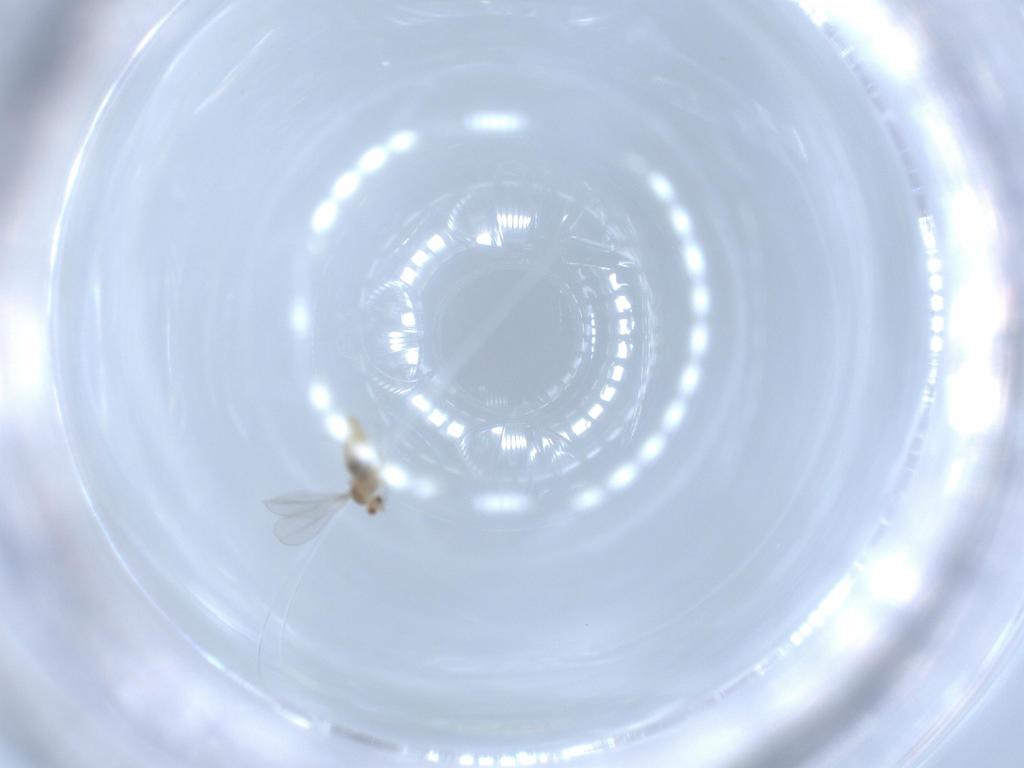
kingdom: Animalia
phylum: Arthropoda
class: Insecta
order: Diptera
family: Cecidomyiidae
